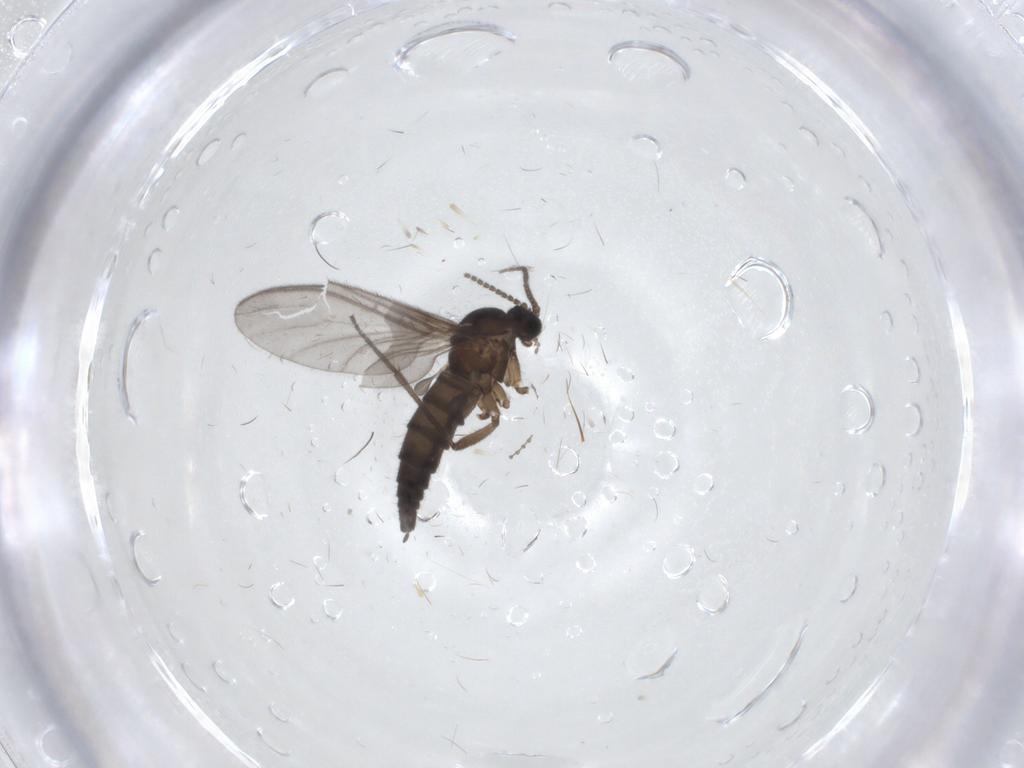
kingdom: Animalia
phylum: Arthropoda
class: Insecta
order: Diptera
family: Sciaridae
